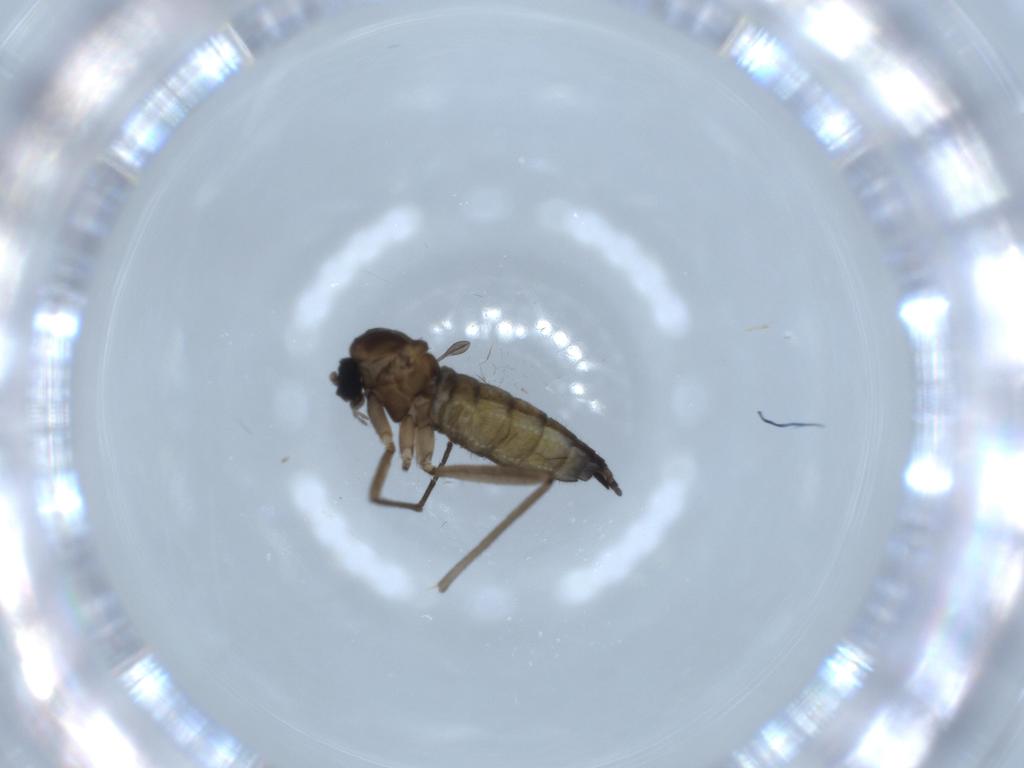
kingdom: Animalia
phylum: Arthropoda
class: Insecta
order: Diptera
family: Sciaridae
